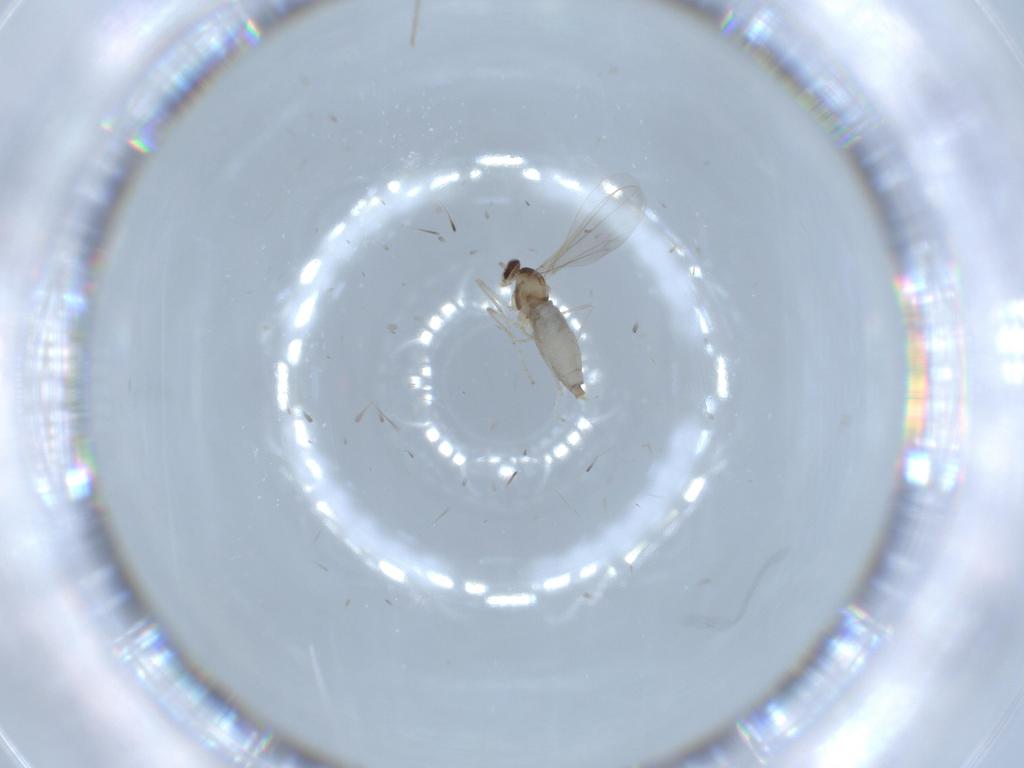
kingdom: Animalia
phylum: Arthropoda
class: Insecta
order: Diptera
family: Cecidomyiidae
